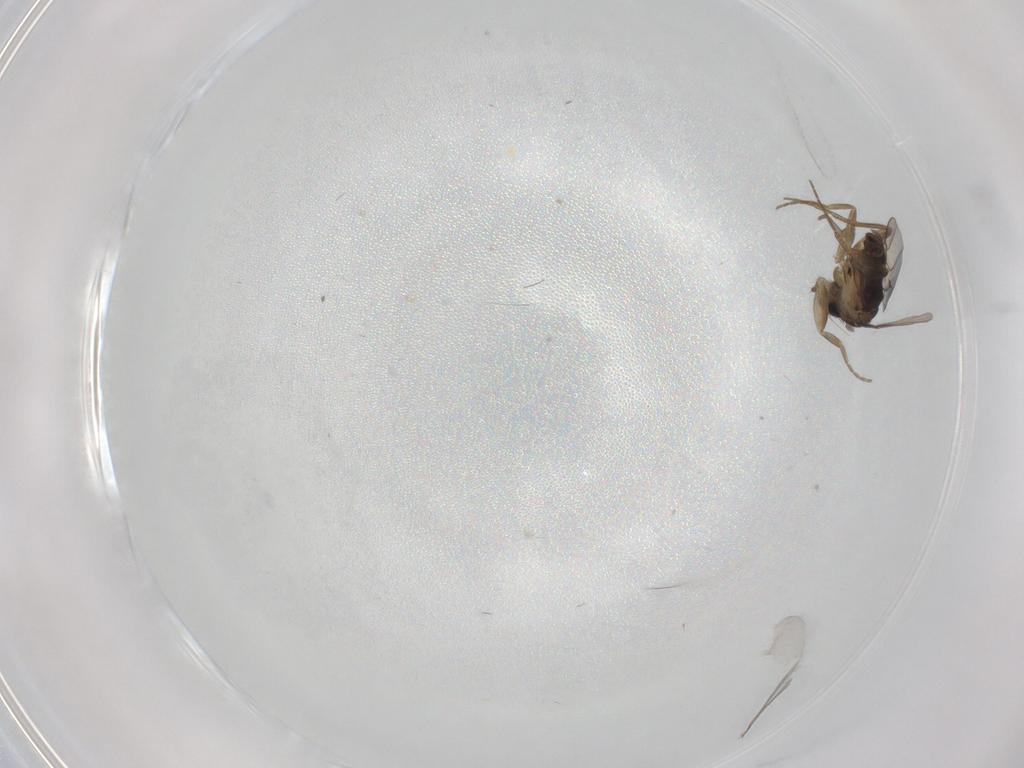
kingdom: Animalia
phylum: Arthropoda
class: Insecta
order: Diptera
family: Phoridae
